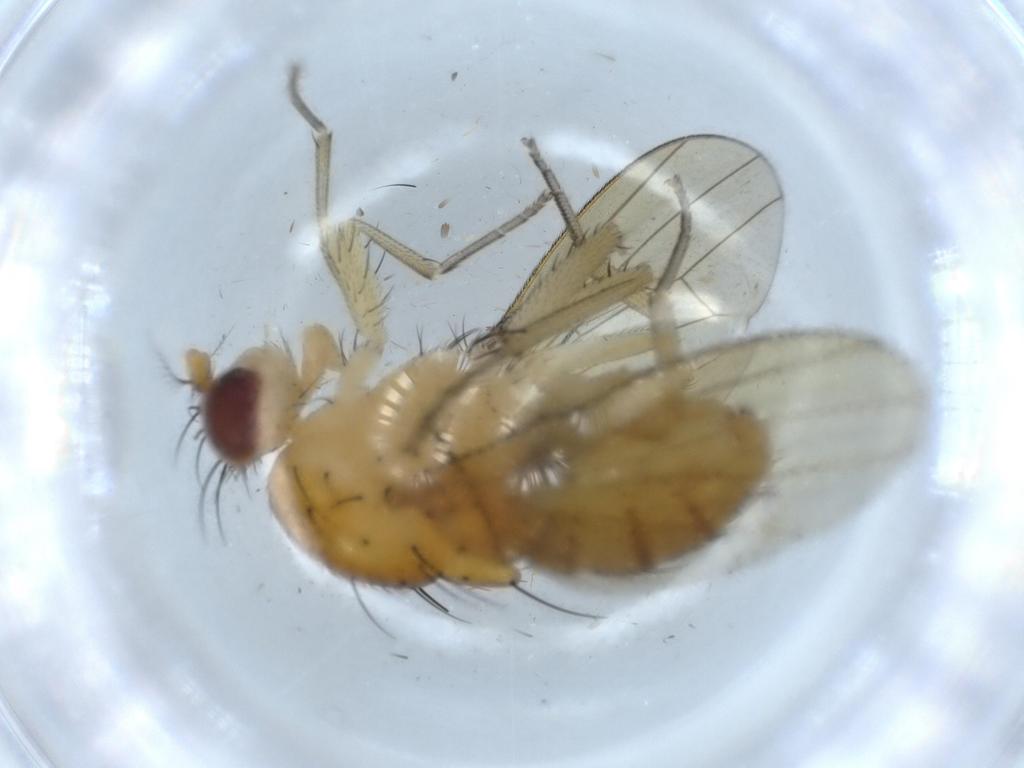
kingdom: Animalia
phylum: Arthropoda
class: Insecta
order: Diptera
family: Sciaridae
